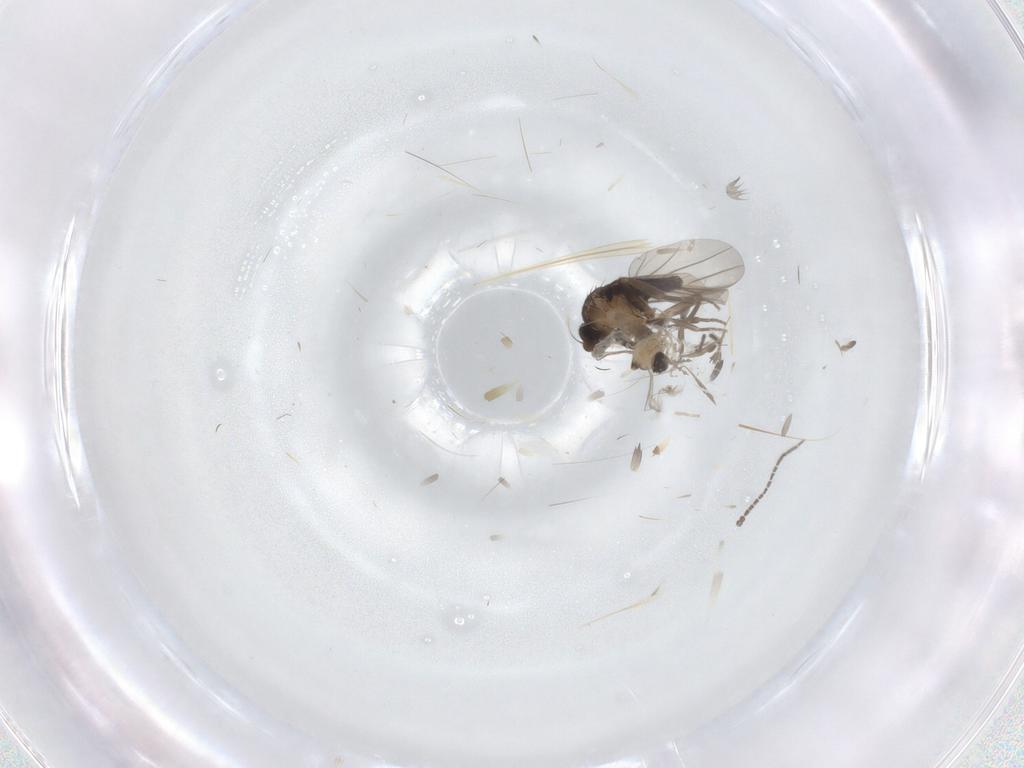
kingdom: Animalia
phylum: Arthropoda
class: Insecta
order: Diptera
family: Cecidomyiidae
